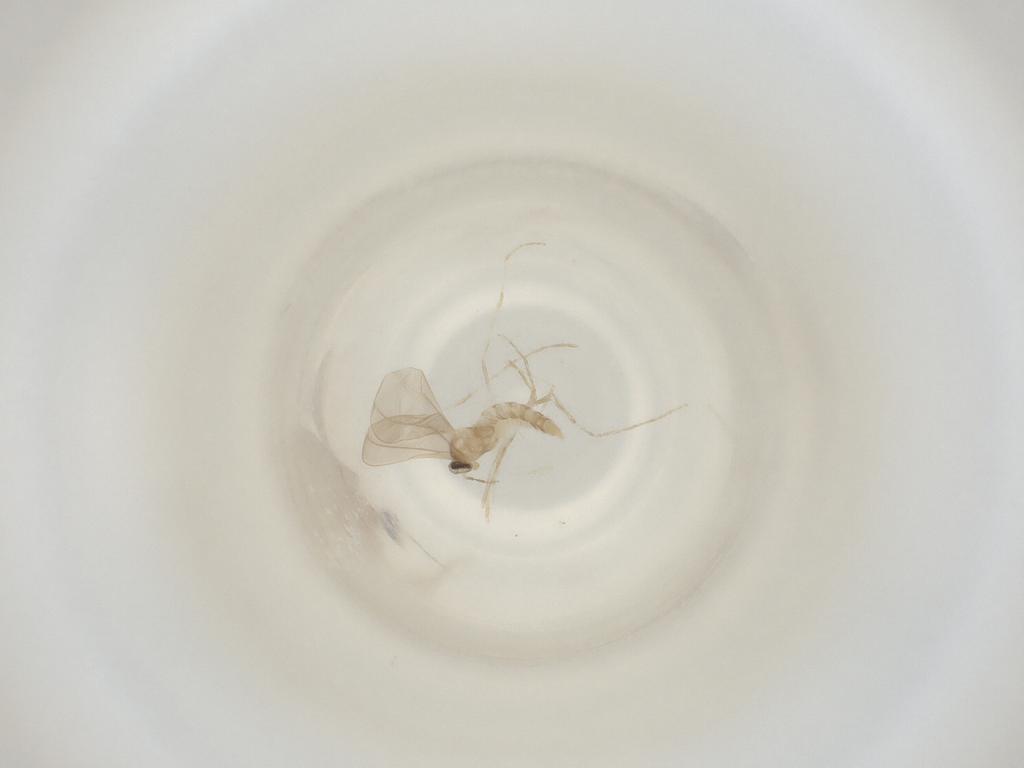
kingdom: Animalia
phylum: Arthropoda
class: Insecta
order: Diptera
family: Cecidomyiidae
